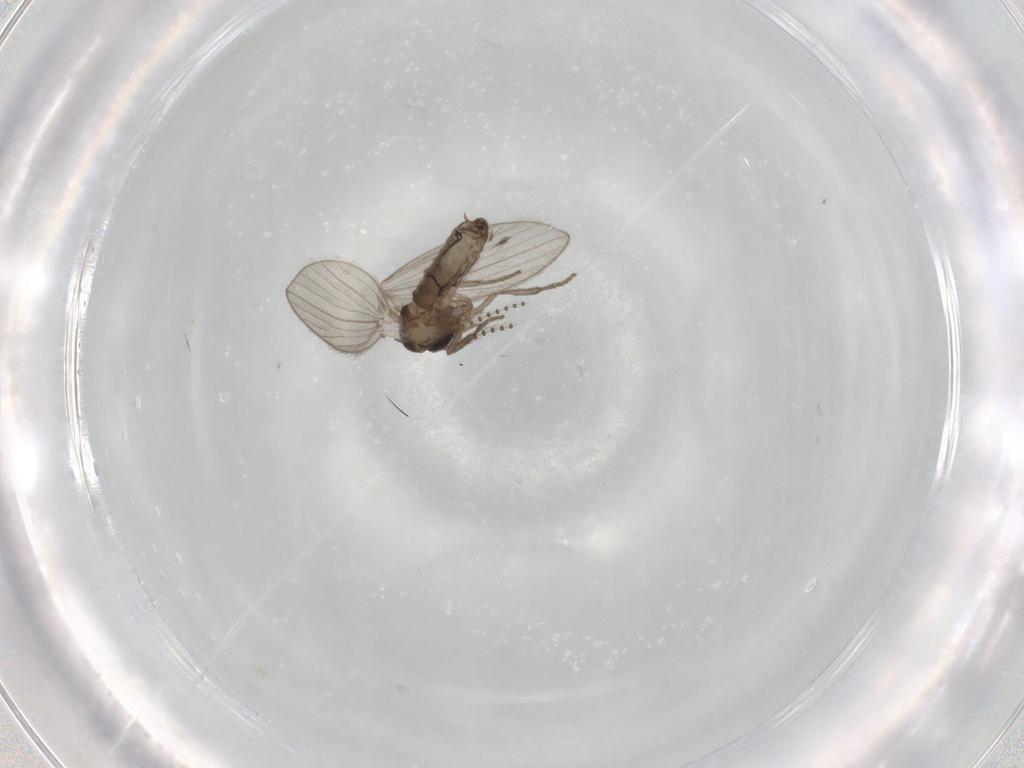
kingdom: Animalia
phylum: Arthropoda
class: Insecta
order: Diptera
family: Psychodidae
